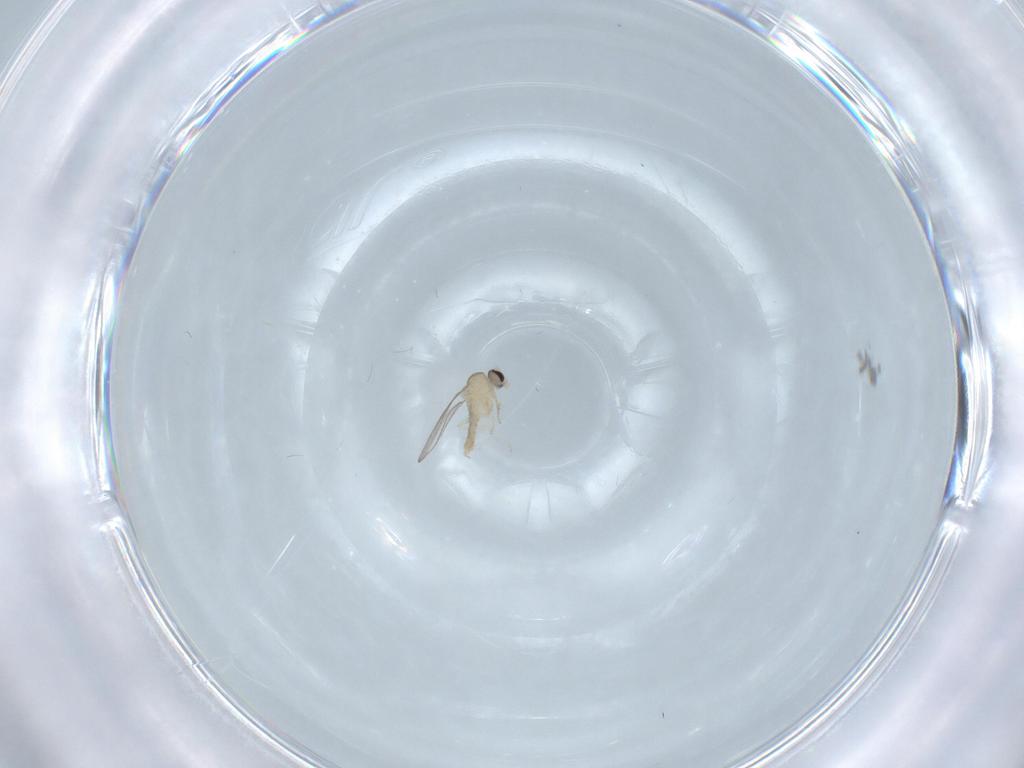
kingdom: Animalia
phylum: Arthropoda
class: Insecta
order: Diptera
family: Cecidomyiidae
